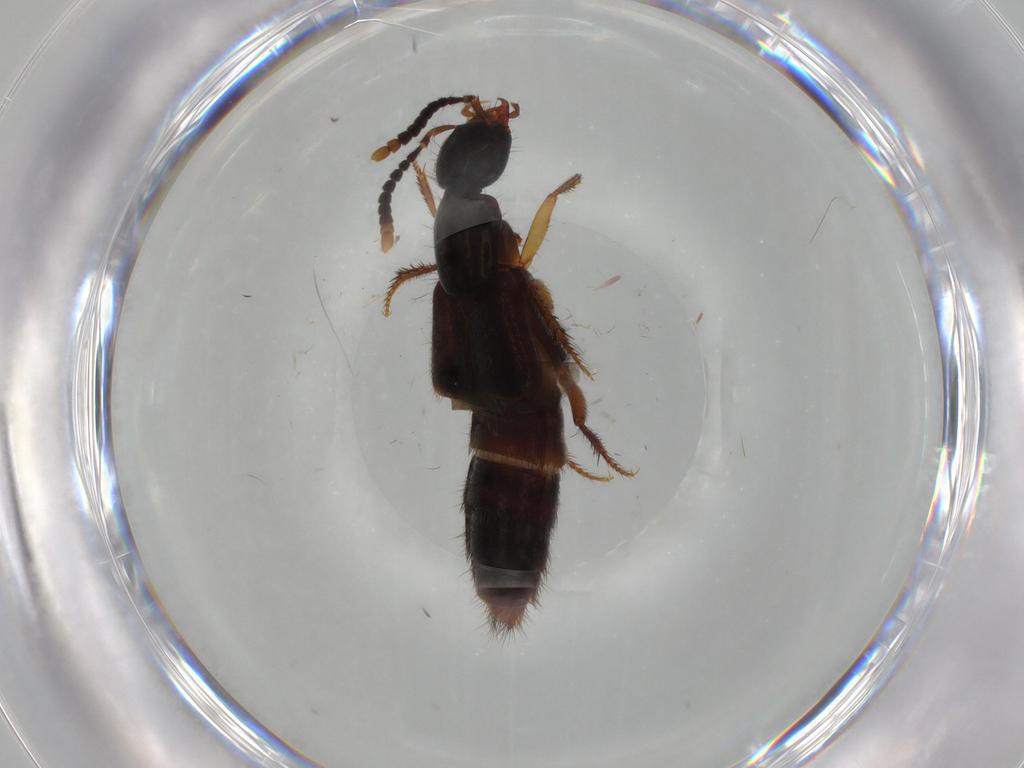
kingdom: Animalia
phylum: Arthropoda
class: Insecta
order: Coleoptera
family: Staphylinidae
